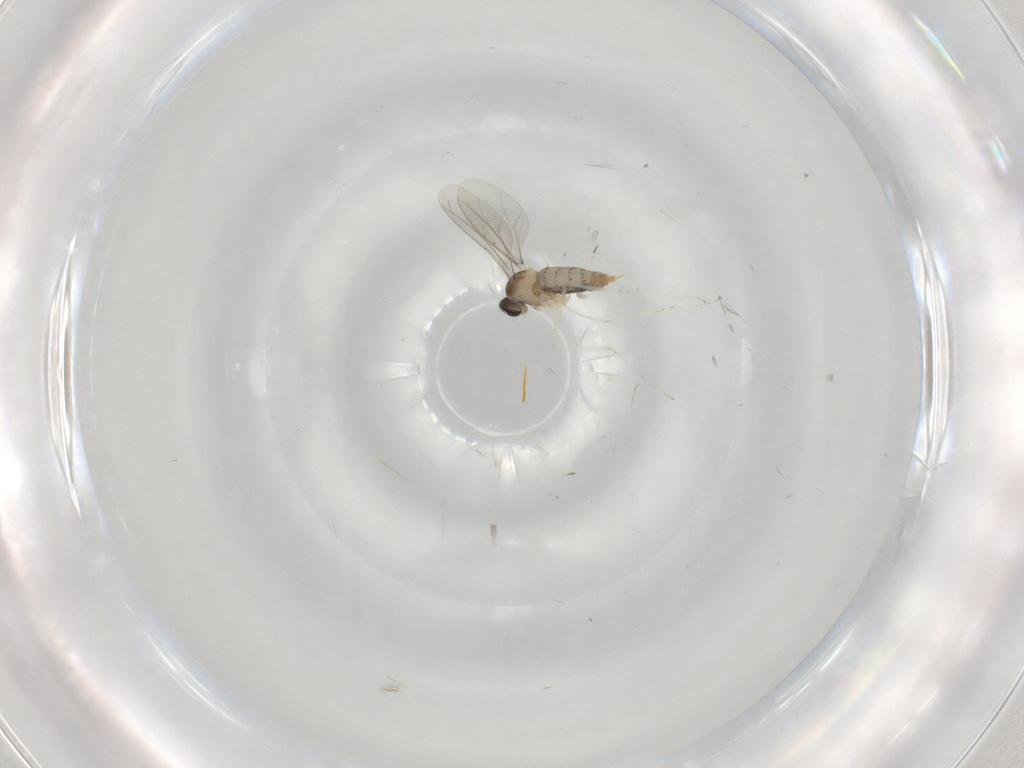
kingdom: Animalia
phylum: Arthropoda
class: Insecta
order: Diptera
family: Cecidomyiidae
